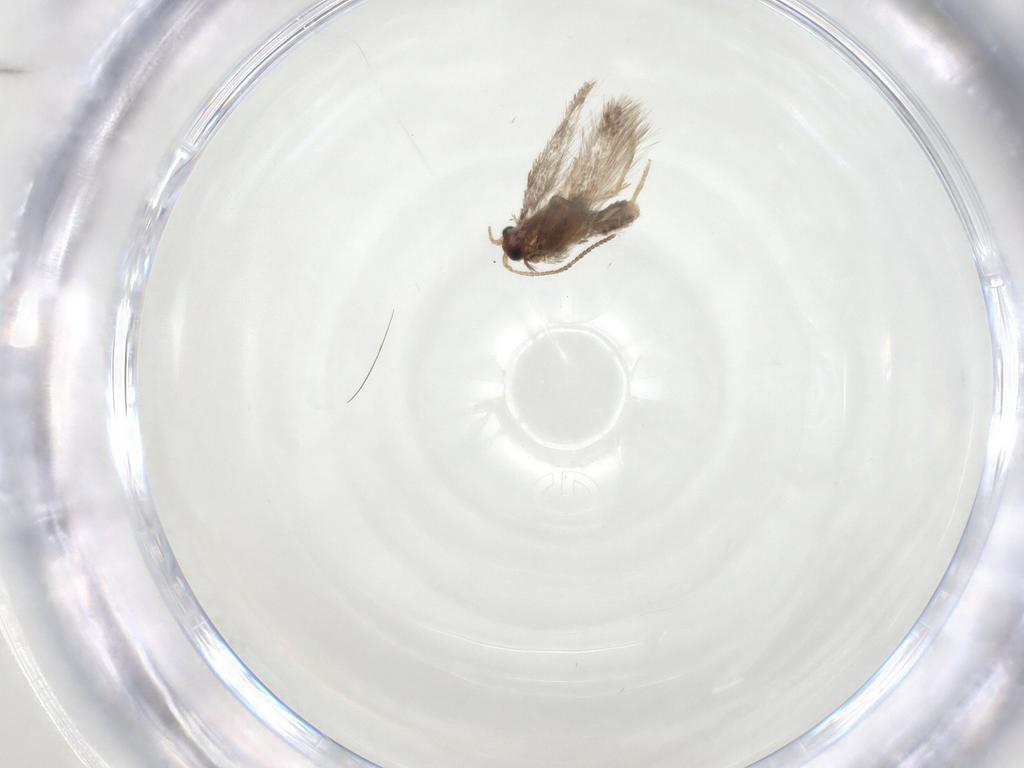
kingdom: Animalia
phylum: Arthropoda
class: Insecta
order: Lepidoptera
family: Nepticulidae
